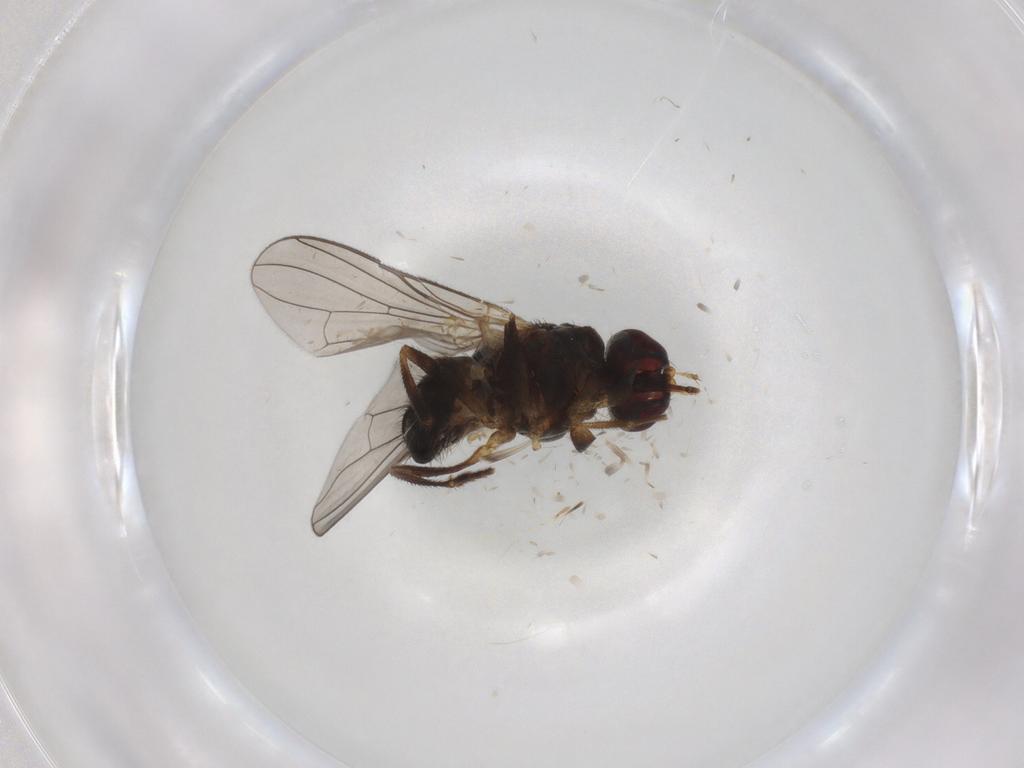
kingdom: Animalia
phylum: Arthropoda
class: Insecta
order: Diptera
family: Muscidae
